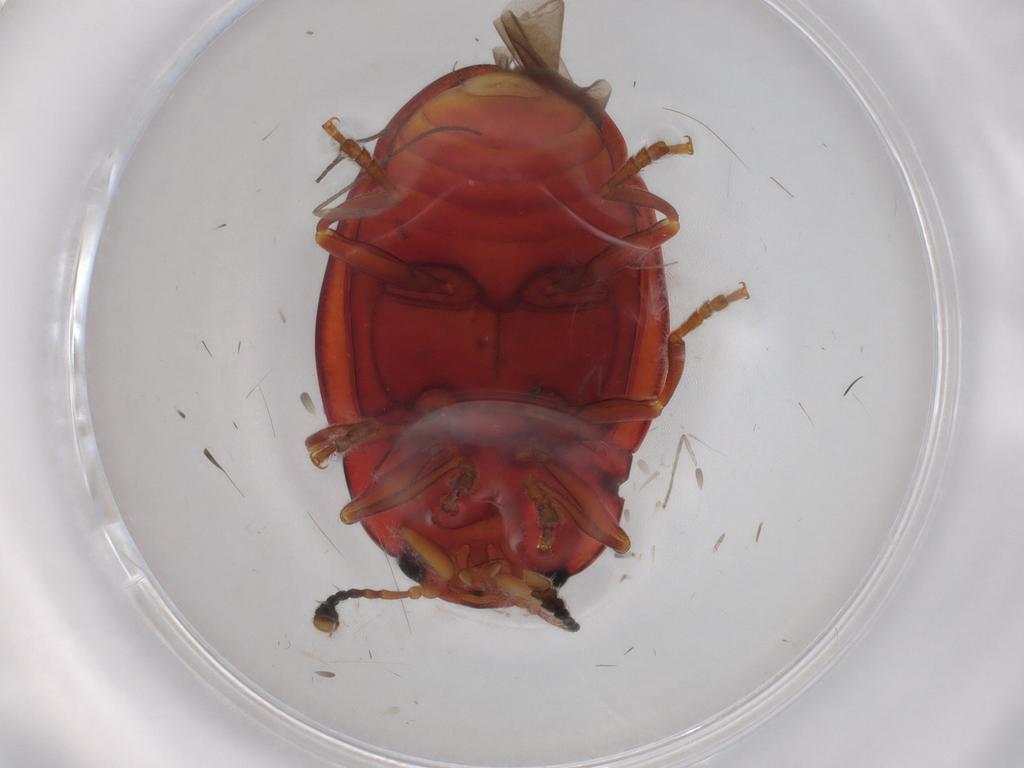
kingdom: Animalia
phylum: Arthropoda
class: Insecta
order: Coleoptera
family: Erotylidae
